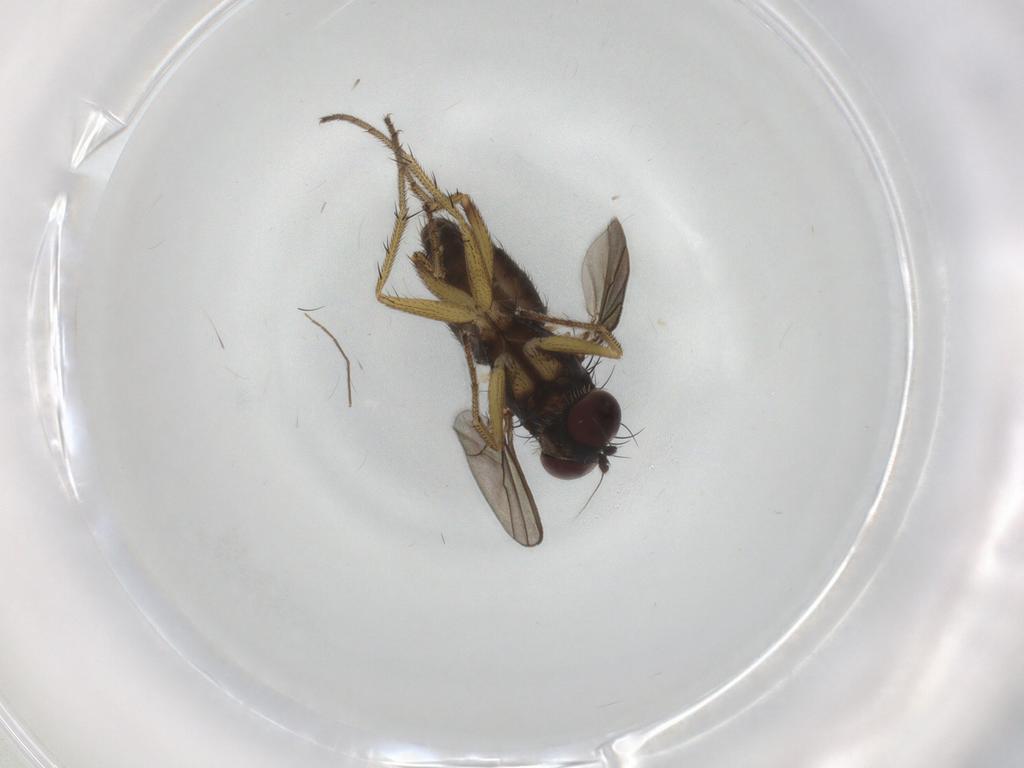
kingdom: Animalia
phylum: Arthropoda
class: Insecta
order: Diptera
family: Dolichopodidae
